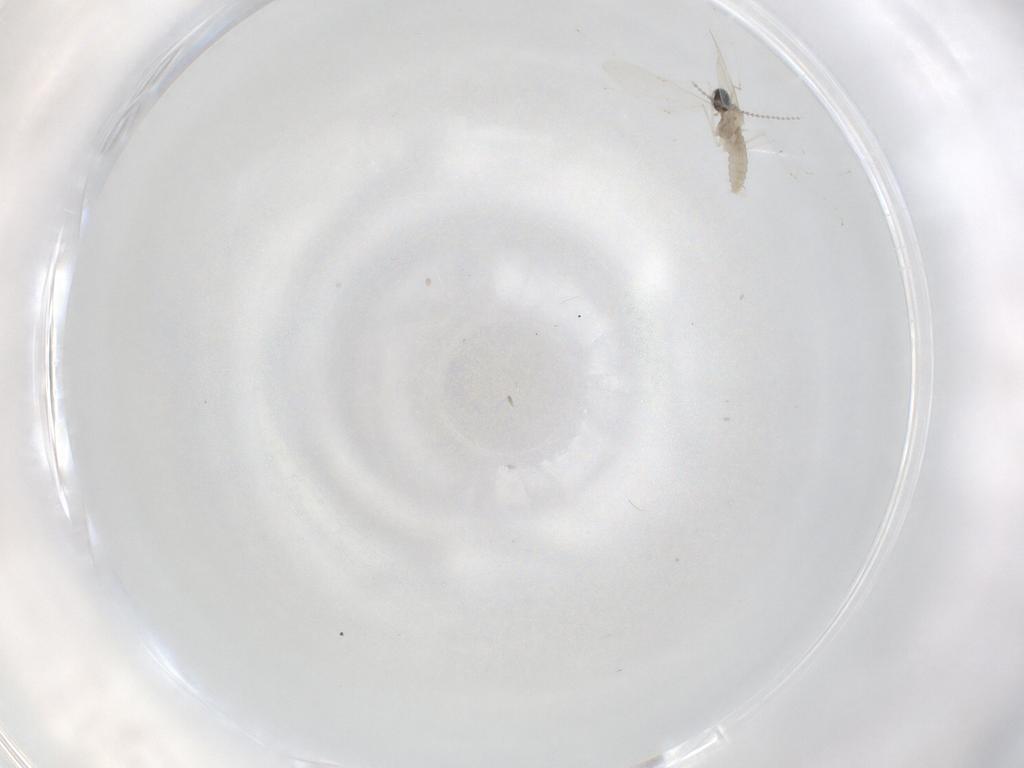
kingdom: Animalia
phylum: Arthropoda
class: Insecta
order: Diptera
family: Cecidomyiidae
